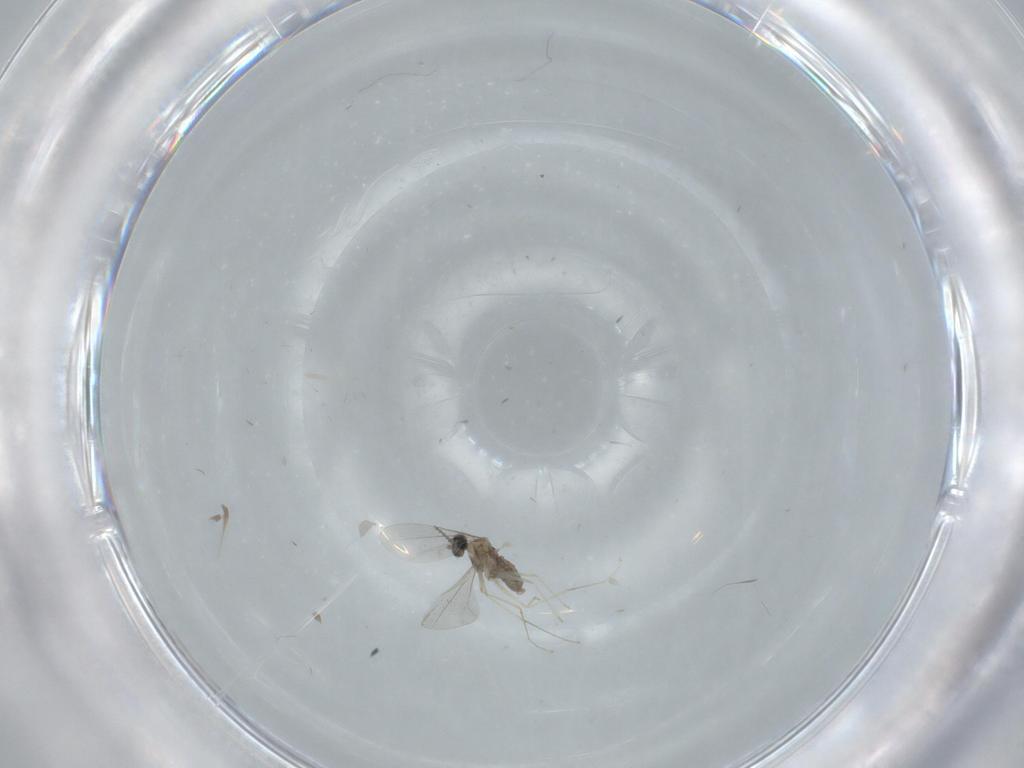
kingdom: Animalia
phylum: Arthropoda
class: Insecta
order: Diptera
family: Cecidomyiidae
